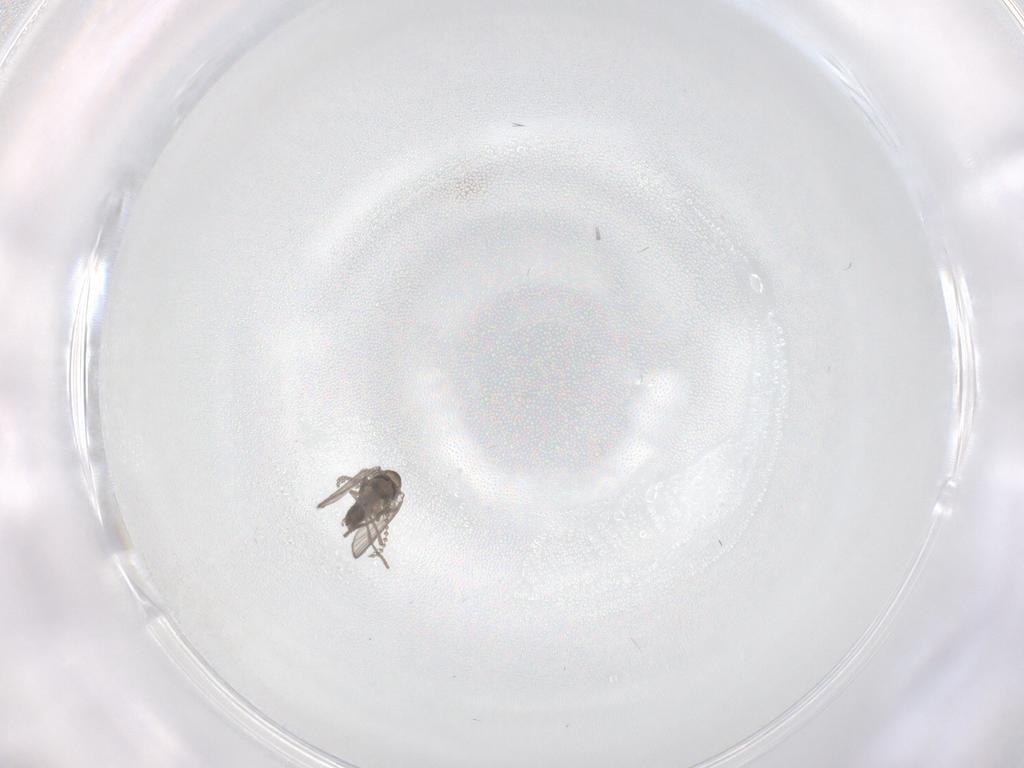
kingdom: Animalia
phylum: Arthropoda
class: Insecta
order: Diptera
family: Psychodidae
